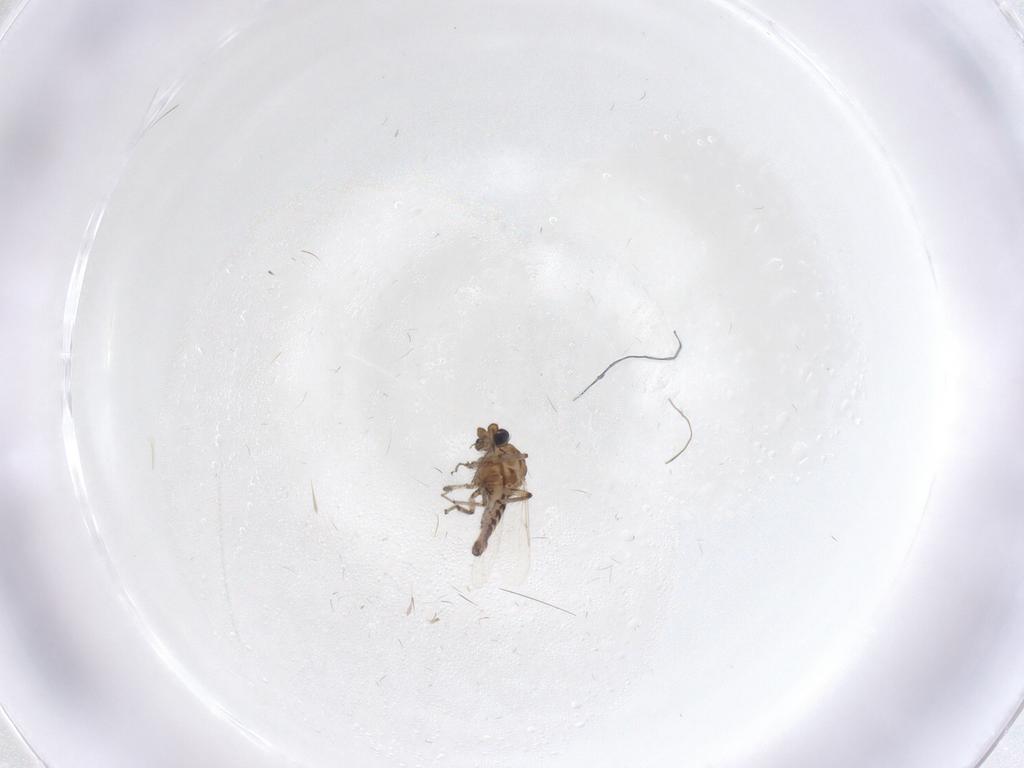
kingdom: Animalia
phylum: Arthropoda
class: Insecta
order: Diptera
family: Ceratopogonidae
